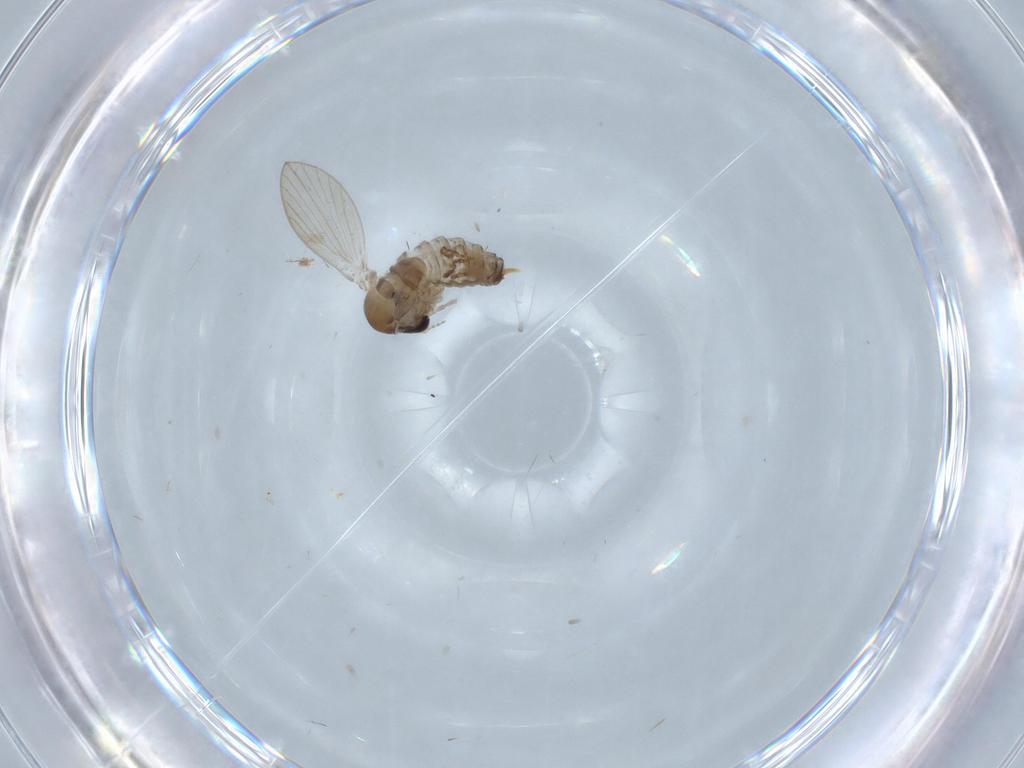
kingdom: Animalia
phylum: Arthropoda
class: Insecta
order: Diptera
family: Psychodidae
